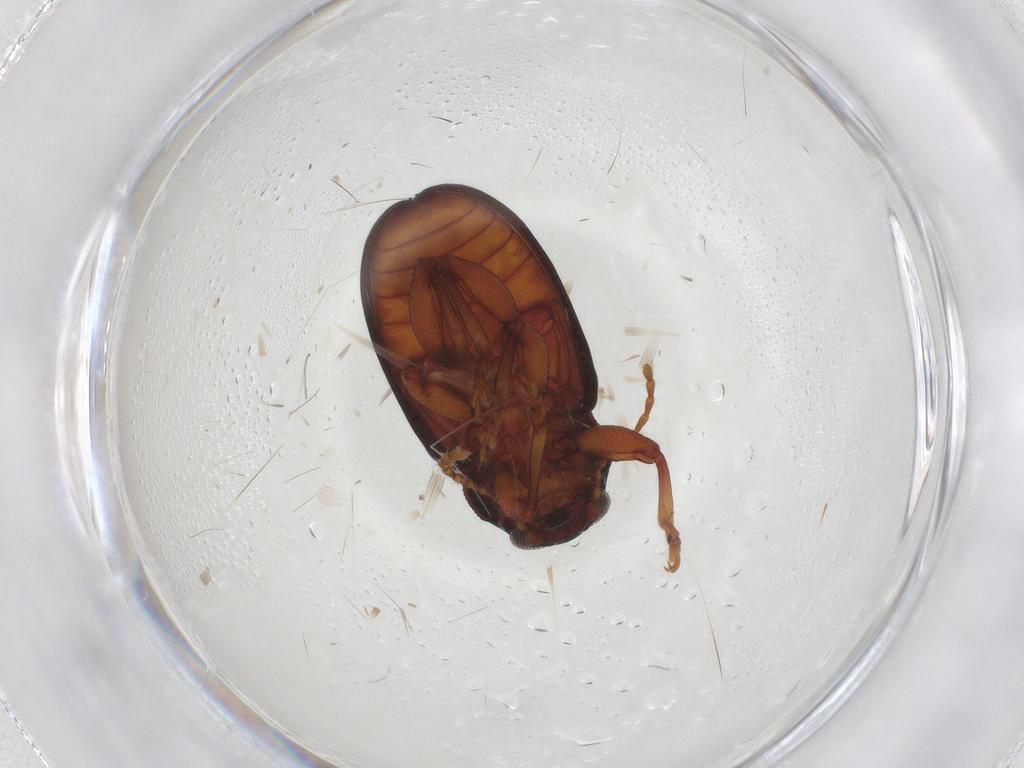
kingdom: Animalia
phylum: Arthropoda
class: Insecta
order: Coleoptera
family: Chrysomelidae
